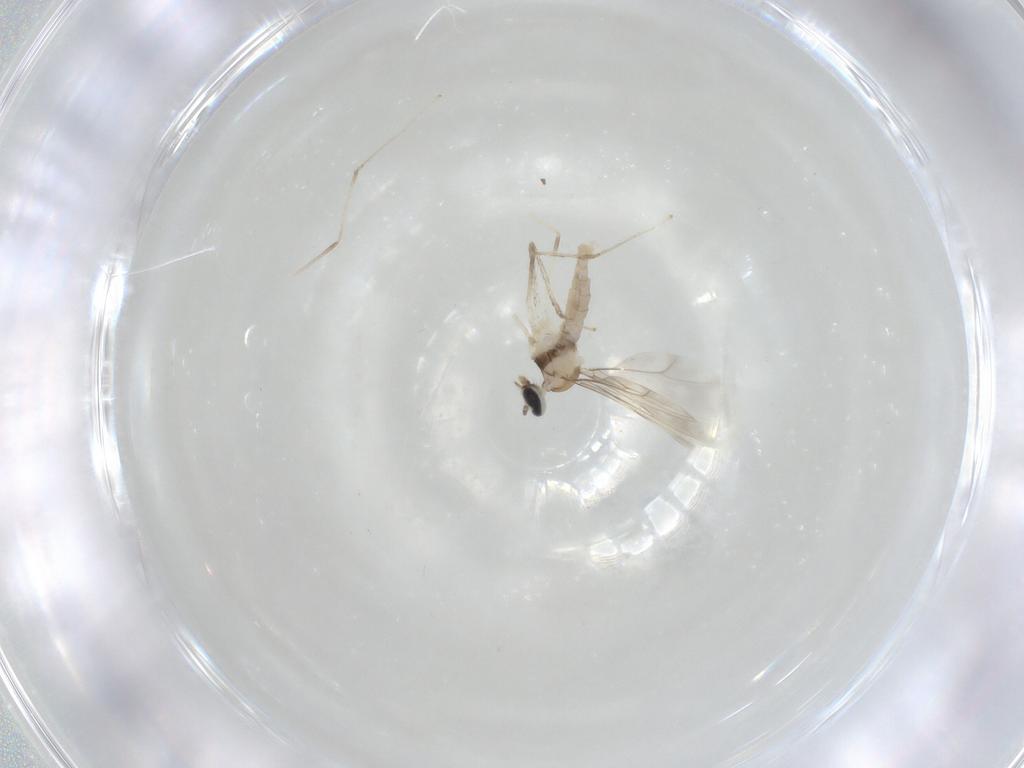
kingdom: Animalia
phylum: Arthropoda
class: Insecta
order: Diptera
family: Cecidomyiidae
